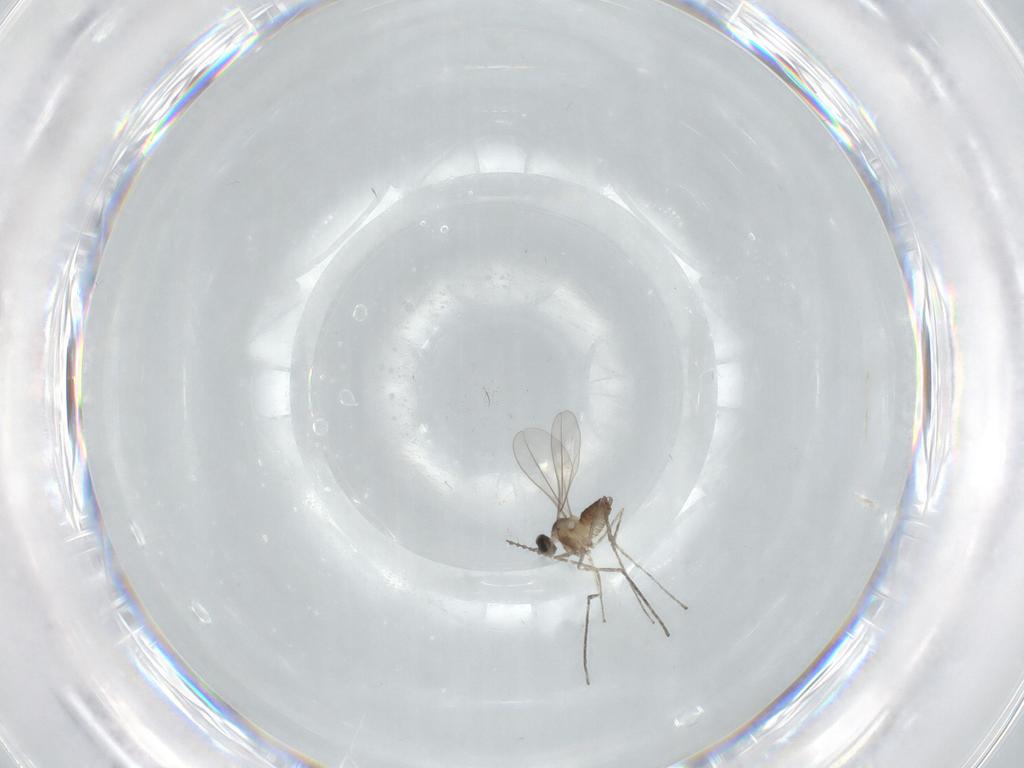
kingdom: Animalia
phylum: Arthropoda
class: Insecta
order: Diptera
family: Cecidomyiidae
